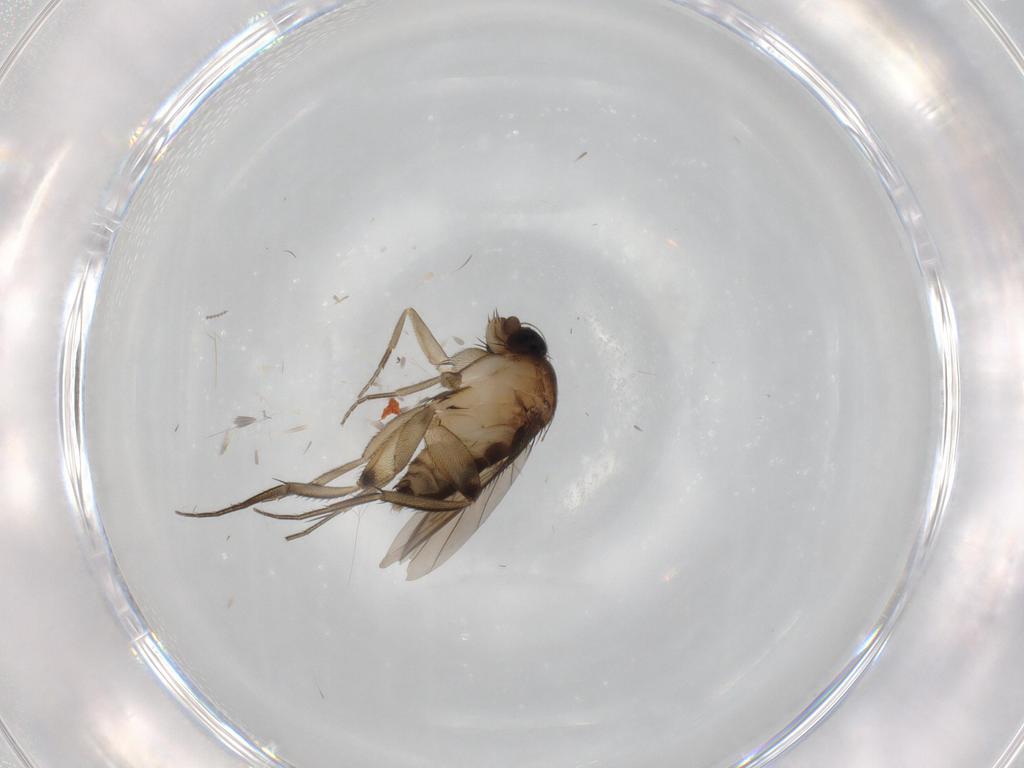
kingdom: Animalia
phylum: Arthropoda
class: Insecta
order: Diptera
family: Phoridae
